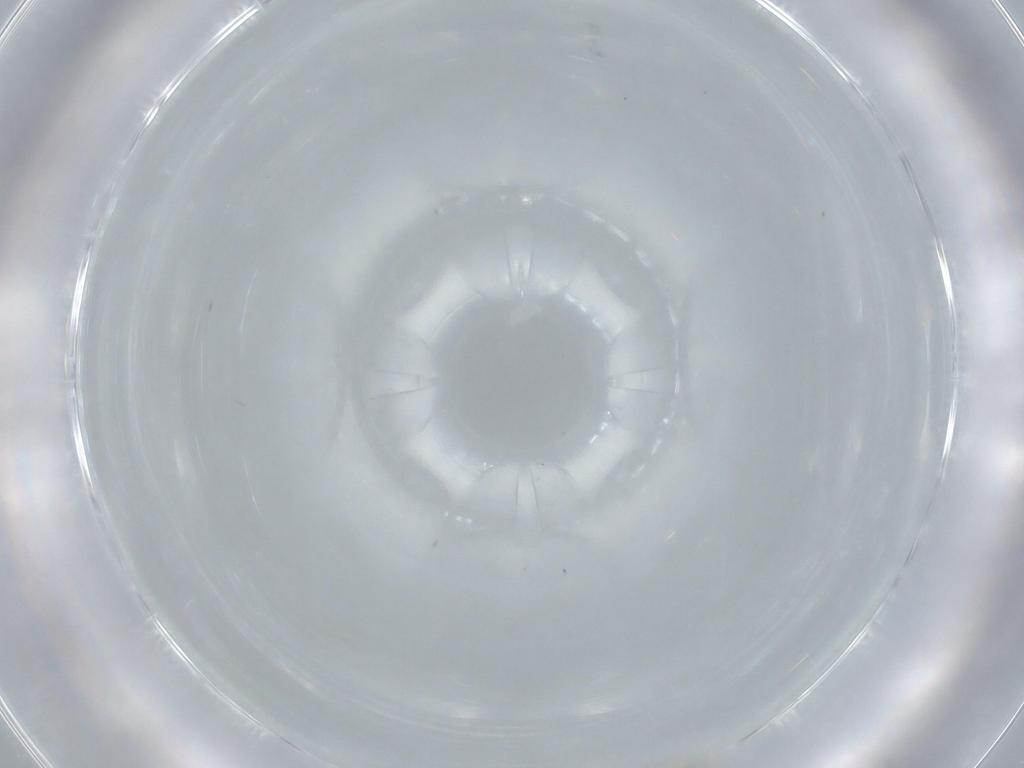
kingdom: Animalia
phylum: Arthropoda
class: Insecta
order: Diptera
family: Cecidomyiidae
